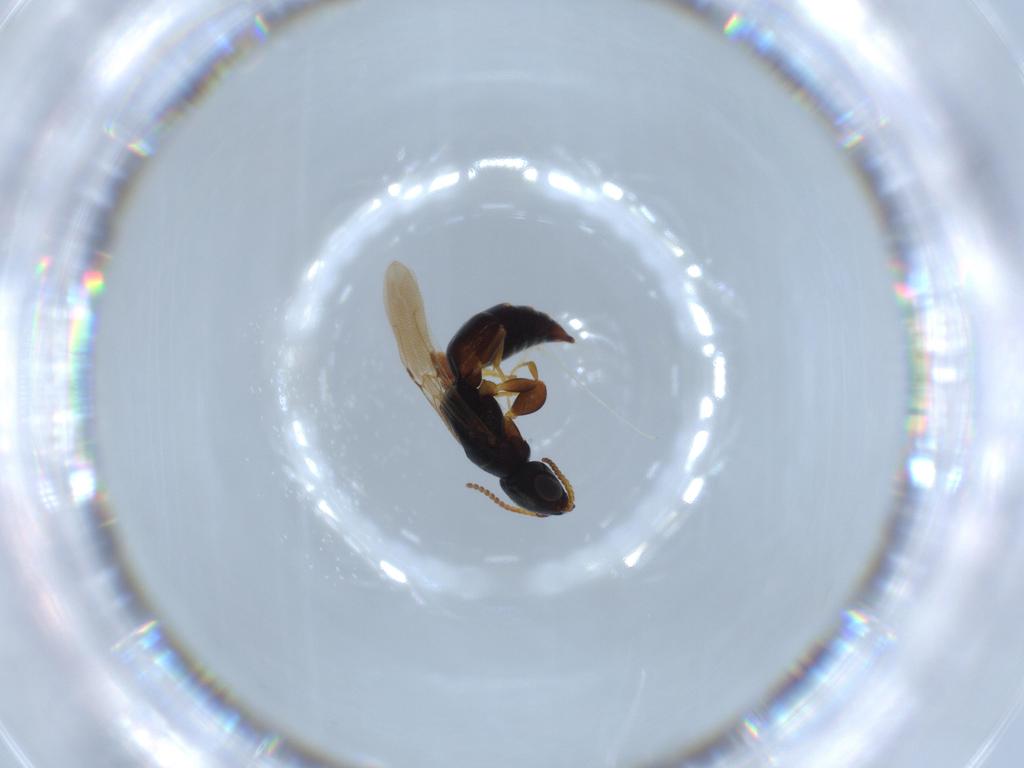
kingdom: Animalia
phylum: Arthropoda
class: Insecta
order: Hymenoptera
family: Bethylidae
